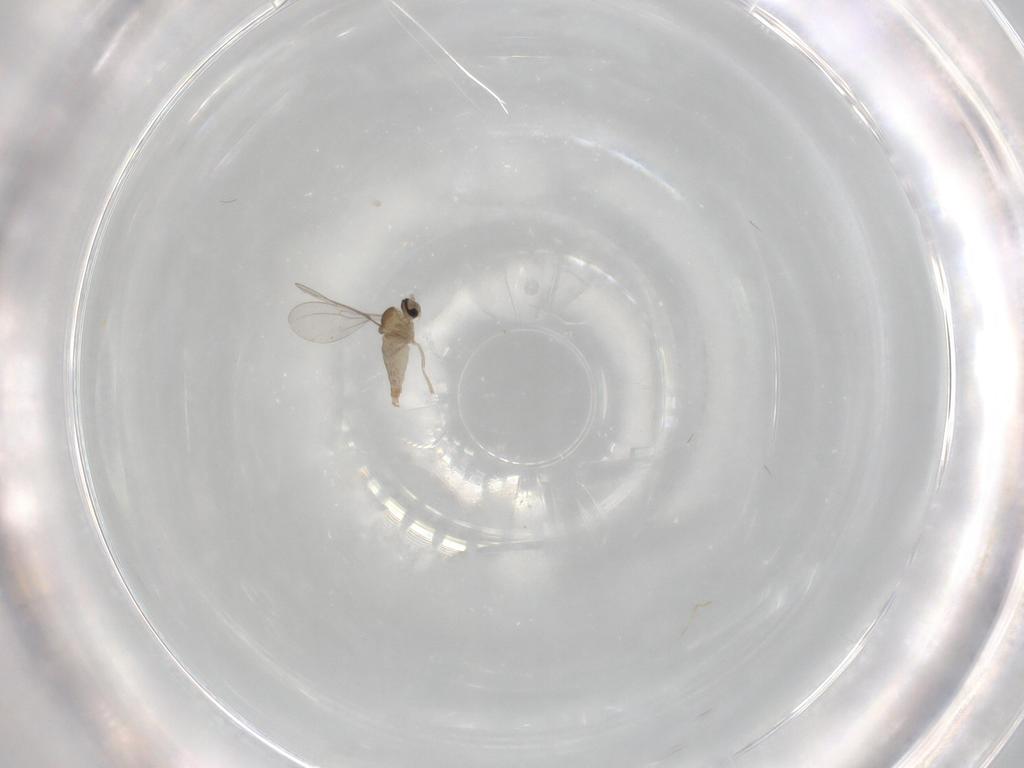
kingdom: Animalia
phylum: Arthropoda
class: Insecta
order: Diptera
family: Cecidomyiidae
